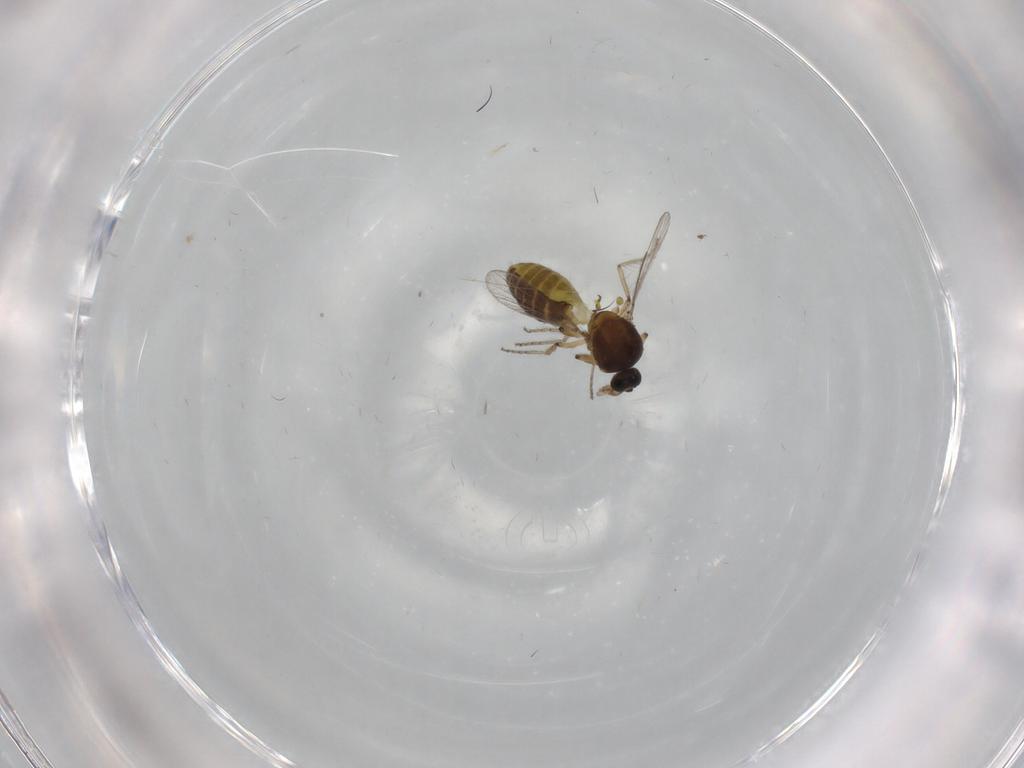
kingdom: Animalia
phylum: Arthropoda
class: Insecta
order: Diptera
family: Ceratopogonidae
